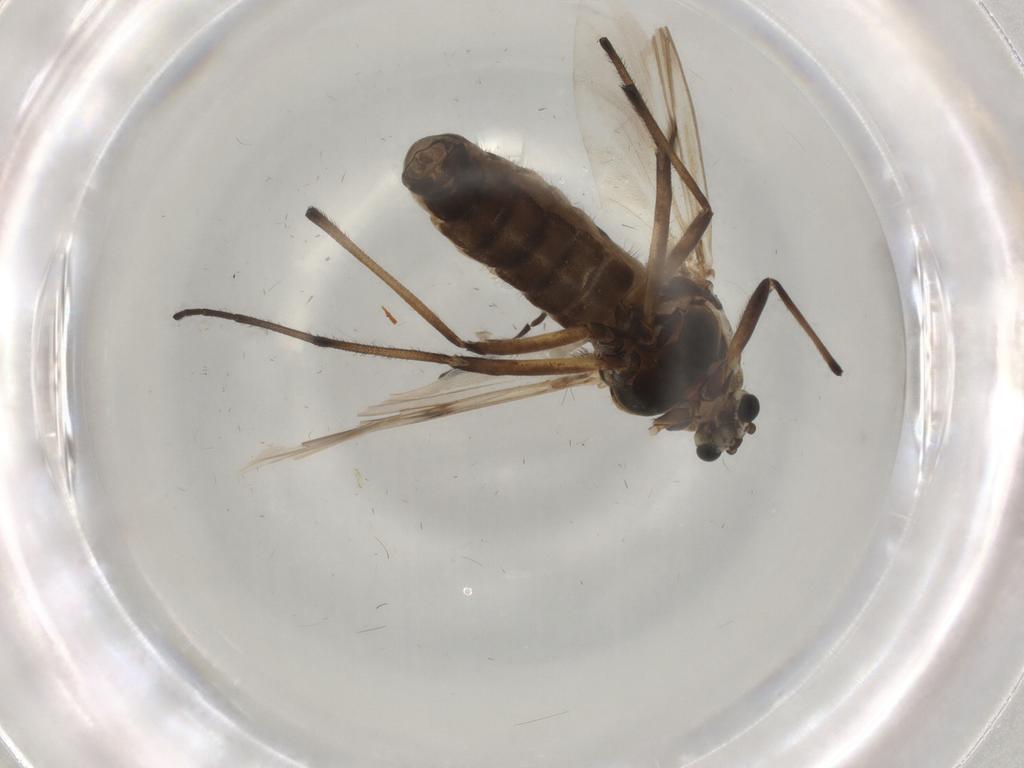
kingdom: Animalia
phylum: Arthropoda
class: Insecta
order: Diptera
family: Chironomidae
